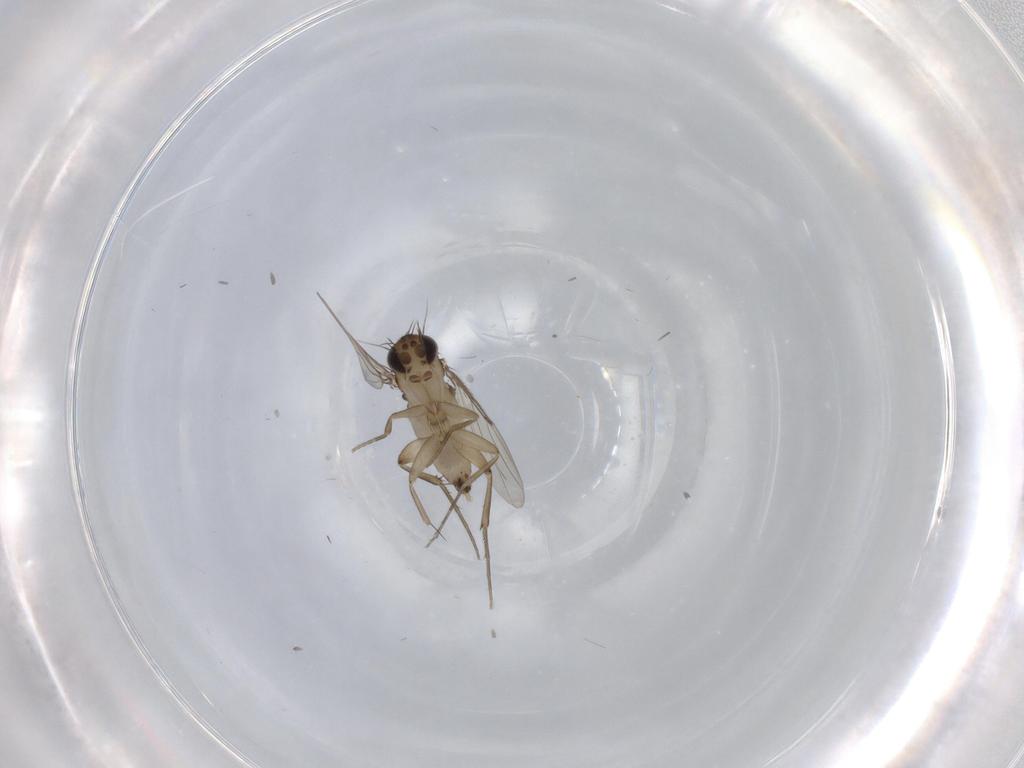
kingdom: Animalia
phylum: Arthropoda
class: Insecta
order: Diptera
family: Phoridae
